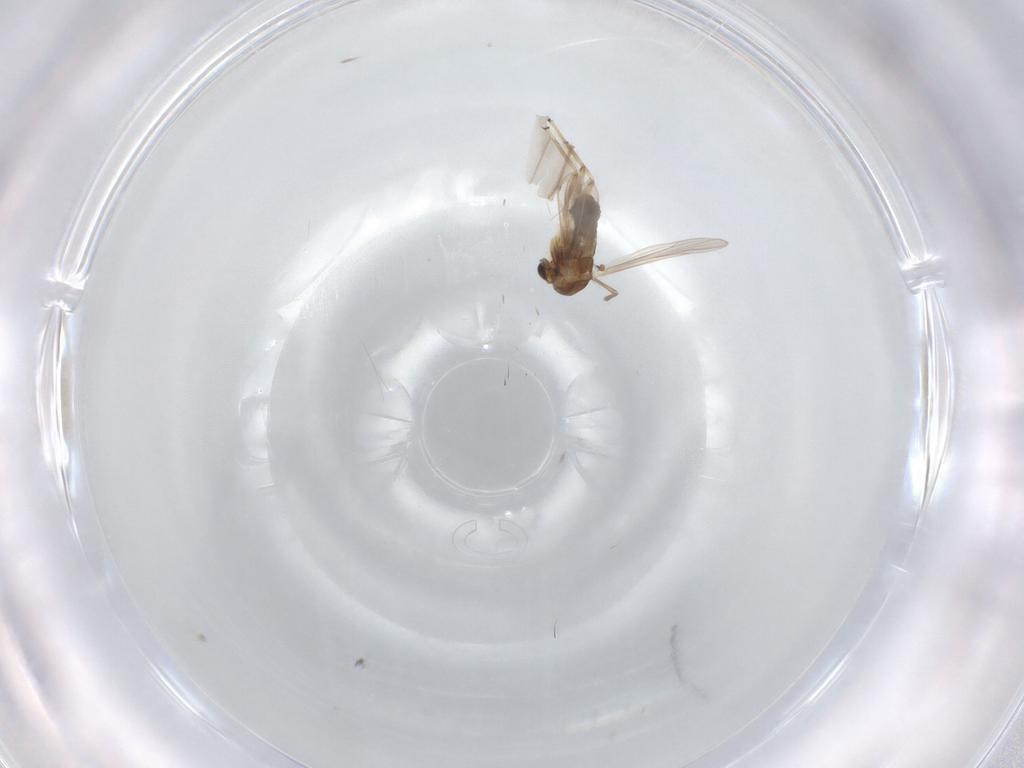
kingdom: Animalia
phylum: Arthropoda
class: Insecta
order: Diptera
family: Chironomidae
